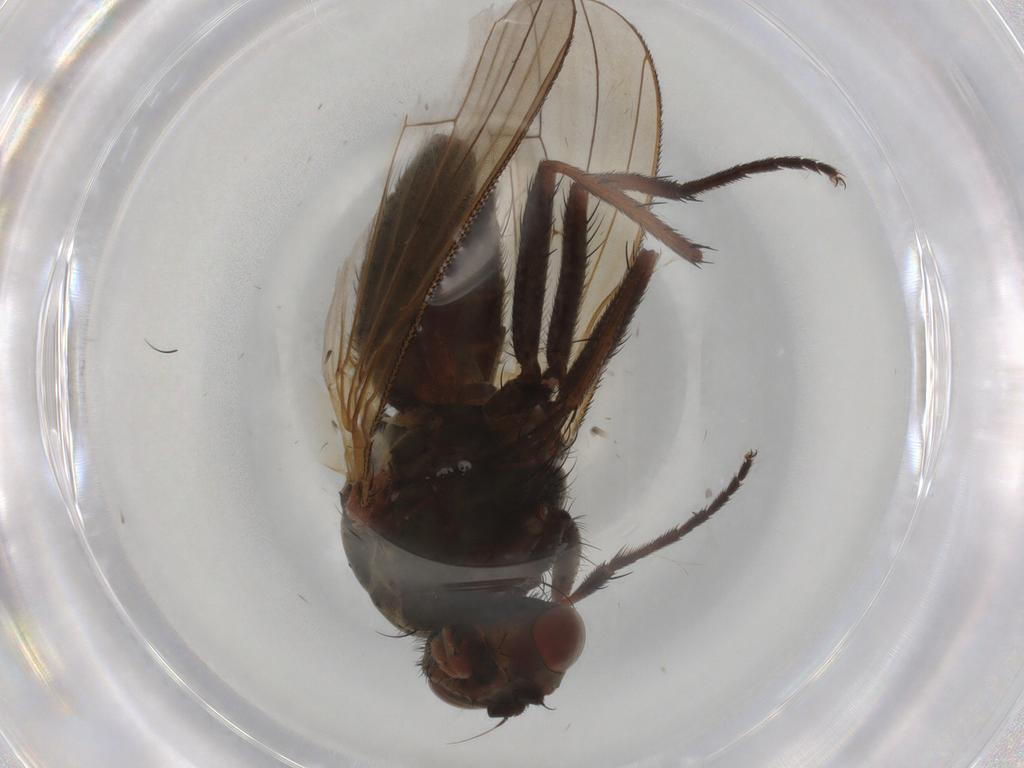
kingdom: Animalia
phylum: Arthropoda
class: Insecta
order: Diptera
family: Anthomyiidae
